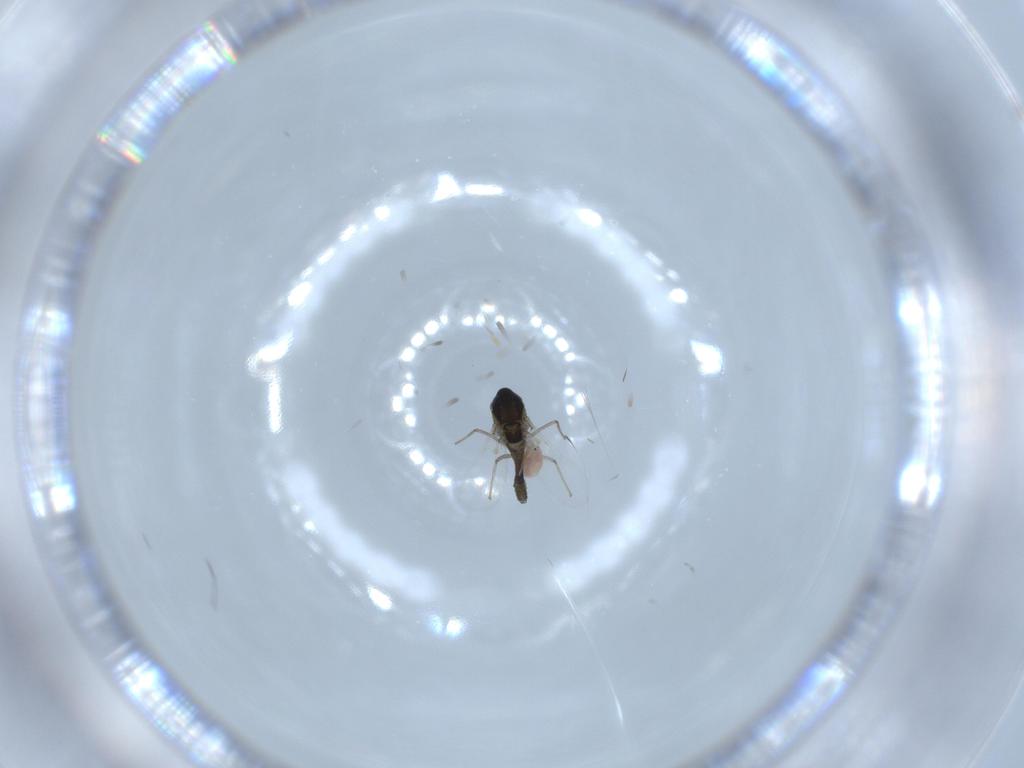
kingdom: Animalia
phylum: Arthropoda
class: Insecta
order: Diptera
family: Chironomidae
